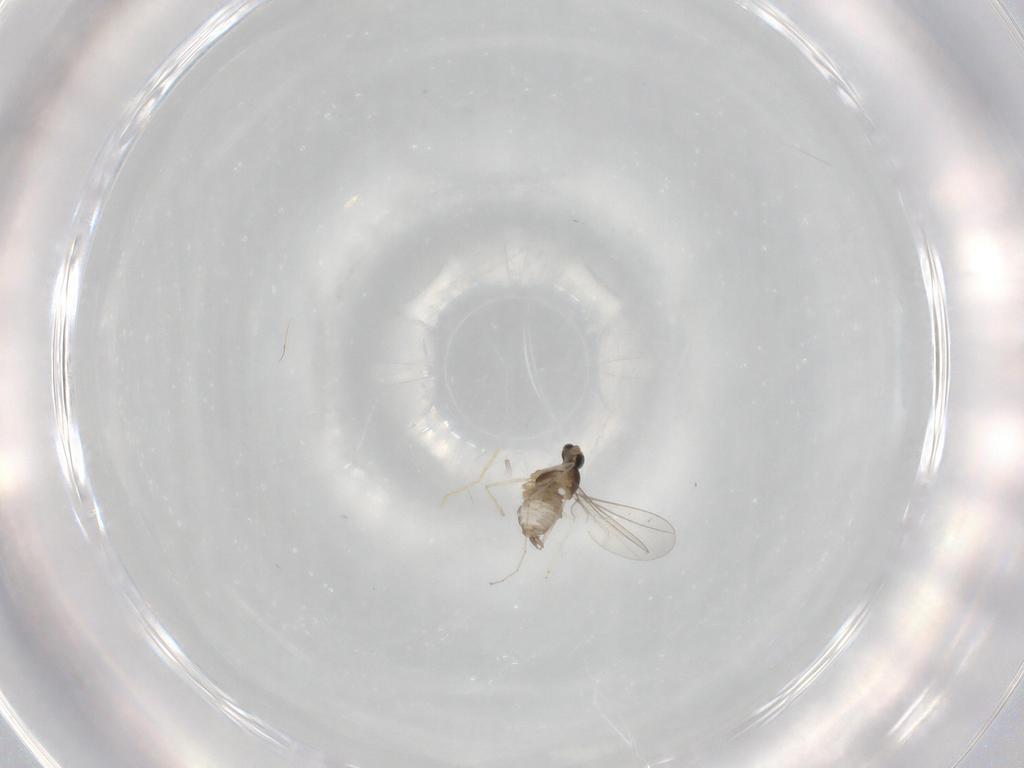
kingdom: Animalia
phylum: Arthropoda
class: Insecta
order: Diptera
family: Cecidomyiidae
